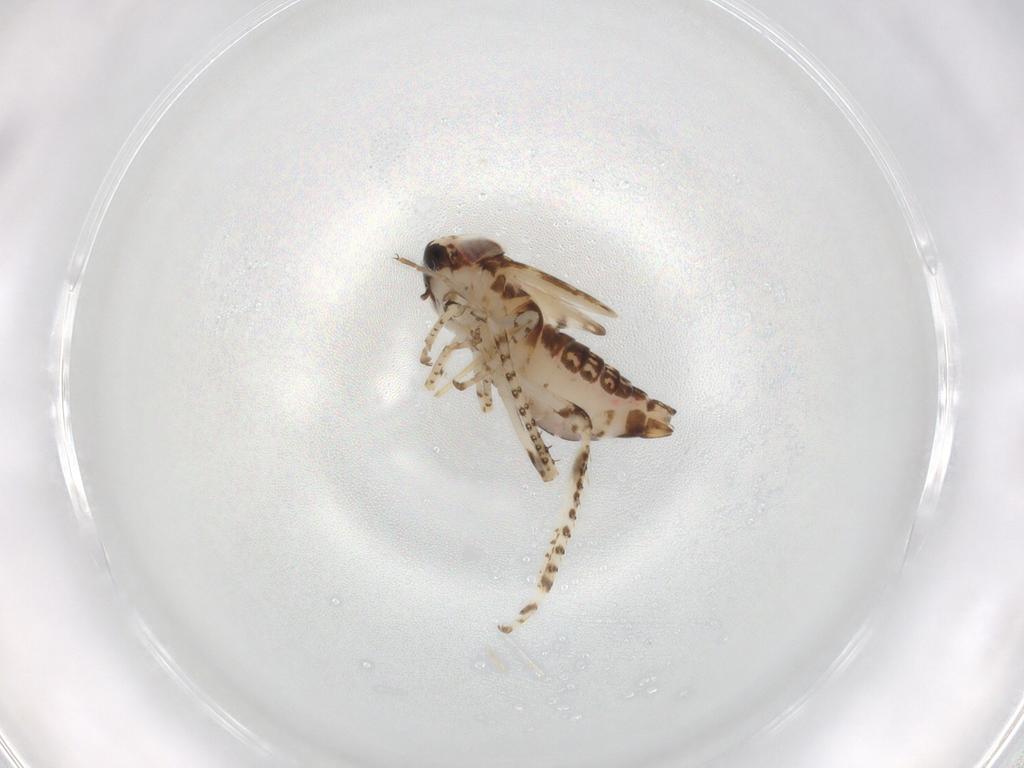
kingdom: Animalia
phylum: Arthropoda
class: Insecta
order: Hemiptera
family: Cicadellidae
